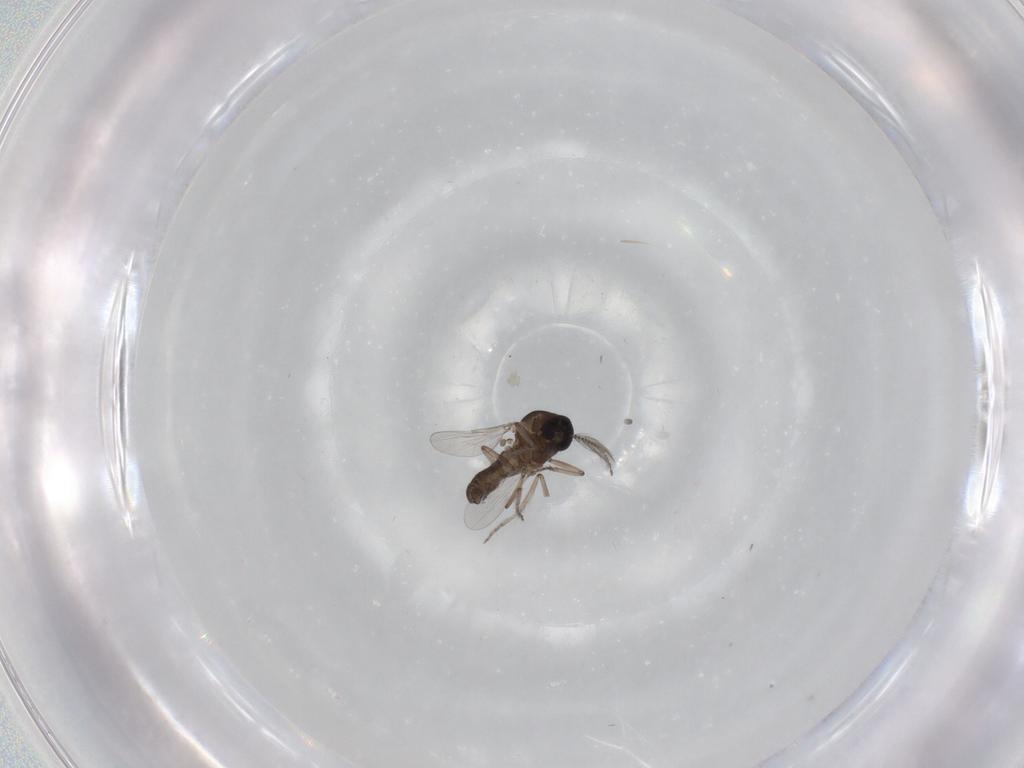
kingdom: Animalia
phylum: Arthropoda
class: Insecta
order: Diptera
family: Ceratopogonidae
